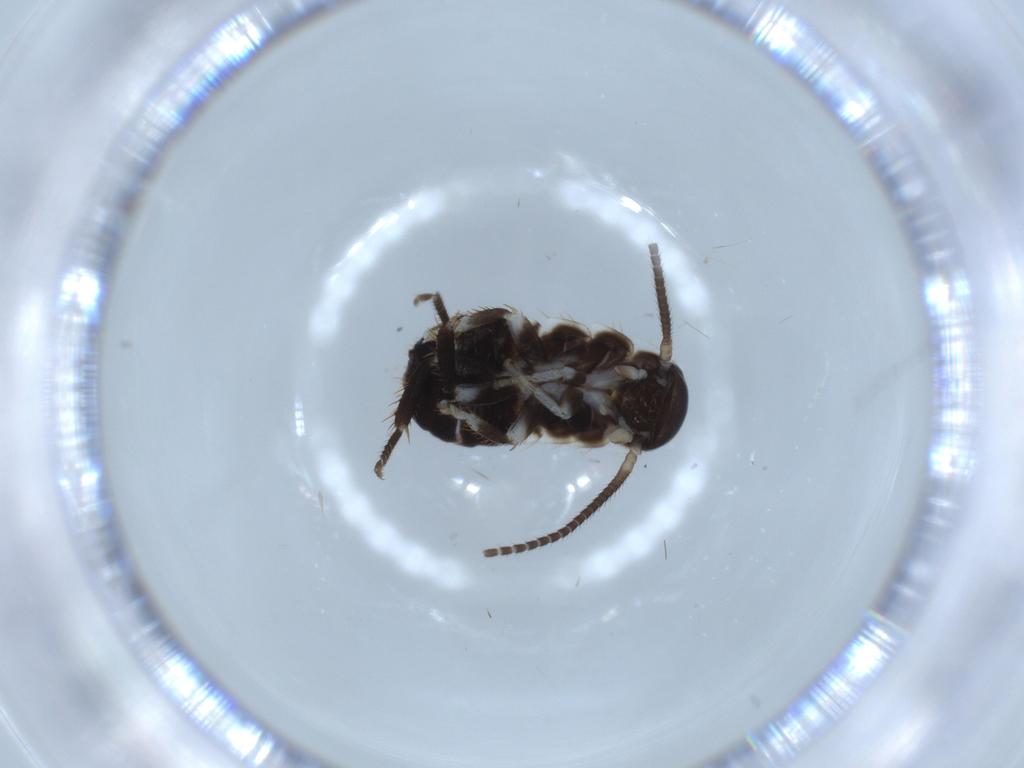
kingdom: Animalia
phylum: Arthropoda
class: Insecta
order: Blattodea
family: Ectobiidae
